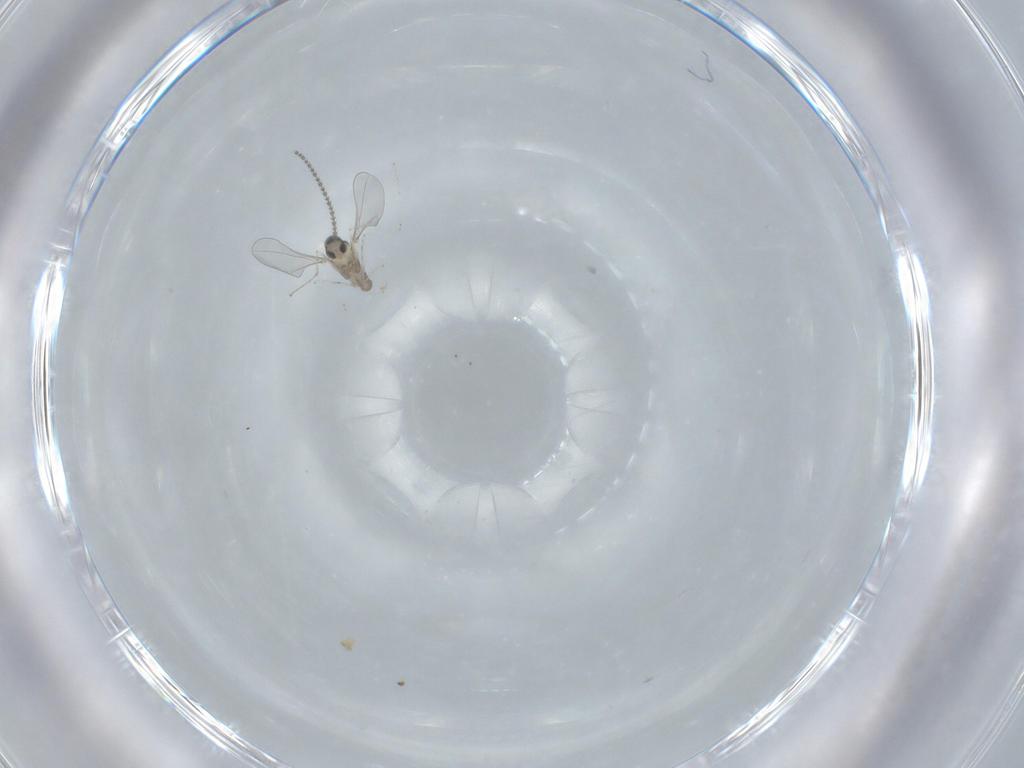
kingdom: Animalia
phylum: Arthropoda
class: Insecta
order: Diptera
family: Cecidomyiidae
